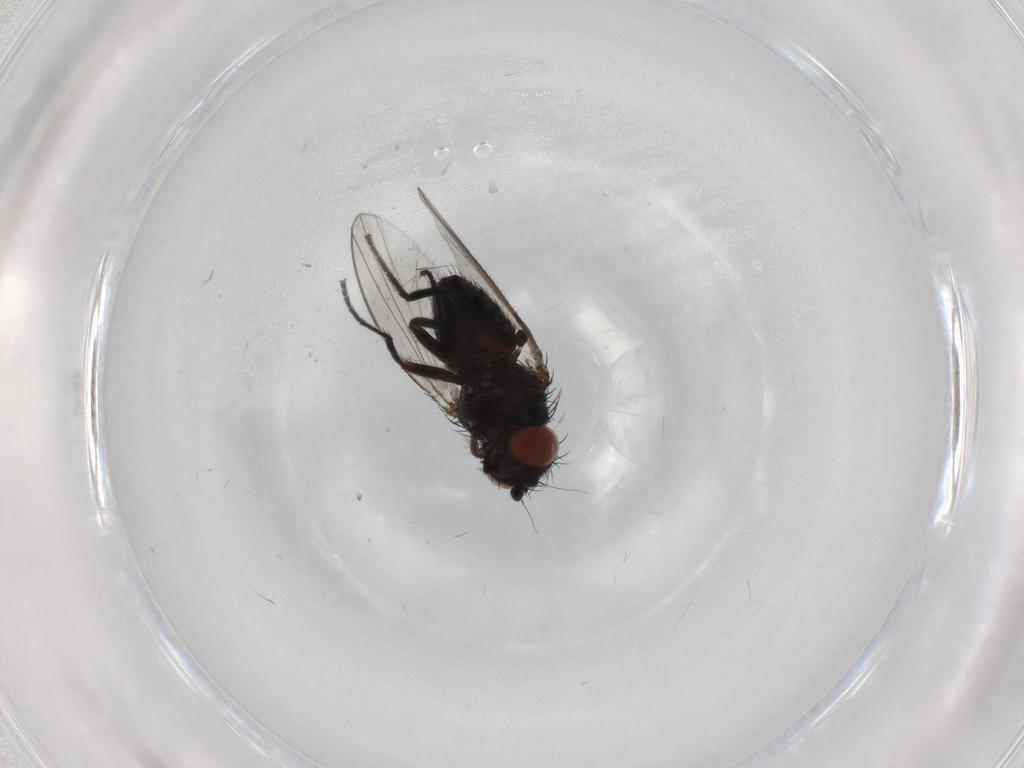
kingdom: Animalia
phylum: Arthropoda
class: Insecta
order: Diptera
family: Milichiidae
